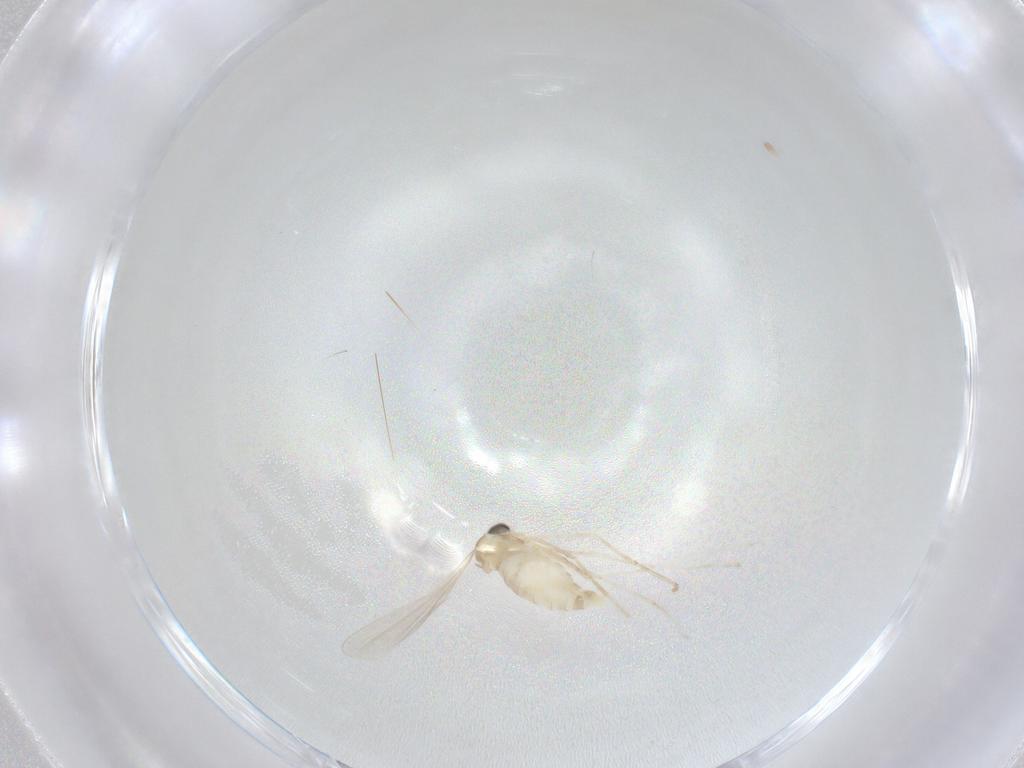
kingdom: Animalia
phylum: Arthropoda
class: Insecta
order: Diptera
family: Cecidomyiidae
